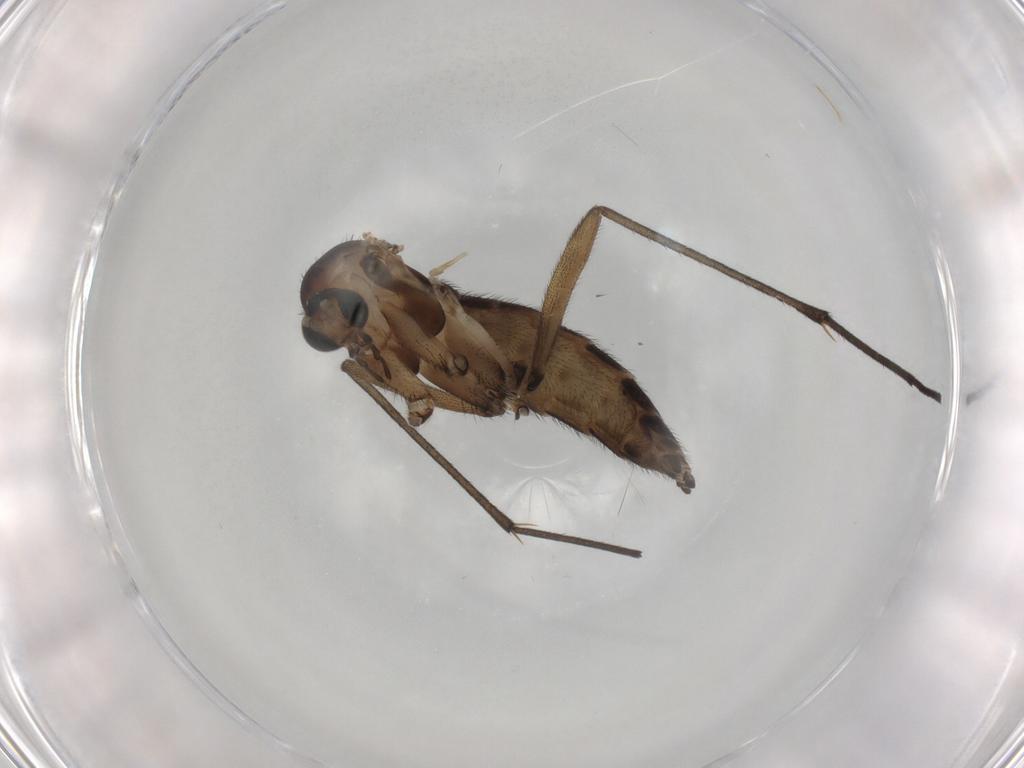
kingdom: Animalia
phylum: Arthropoda
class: Insecta
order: Diptera
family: Sciaridae
